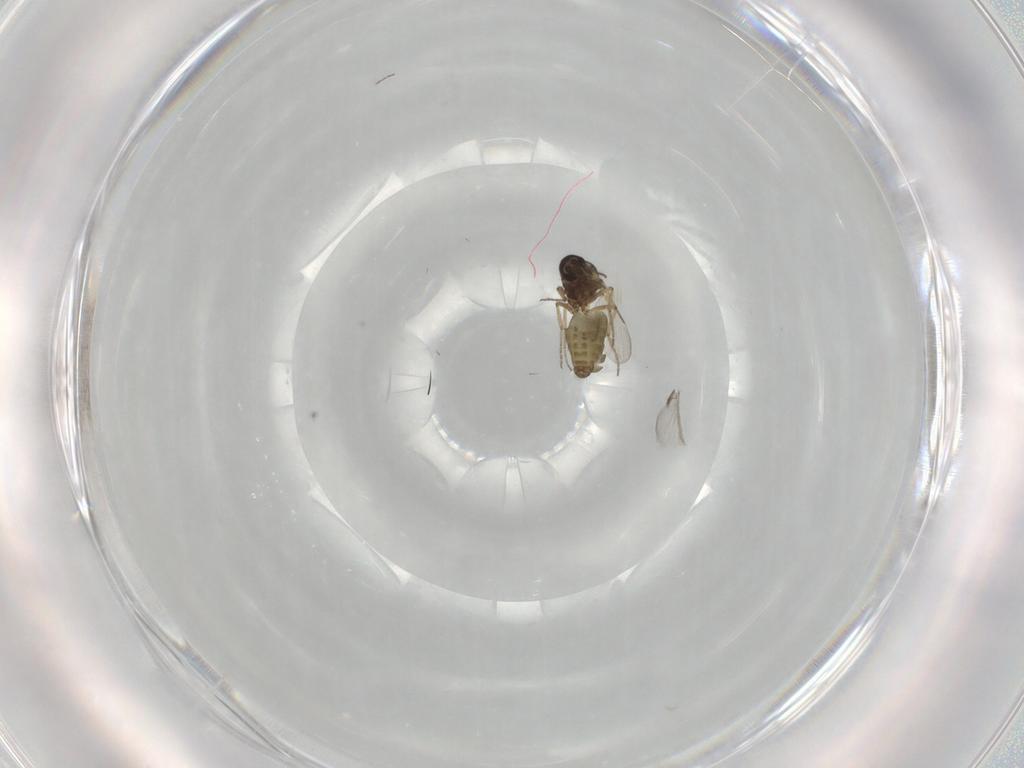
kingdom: Animalia
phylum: Arthropoda
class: Insecta
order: Diptera
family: Ceratopogonidae
